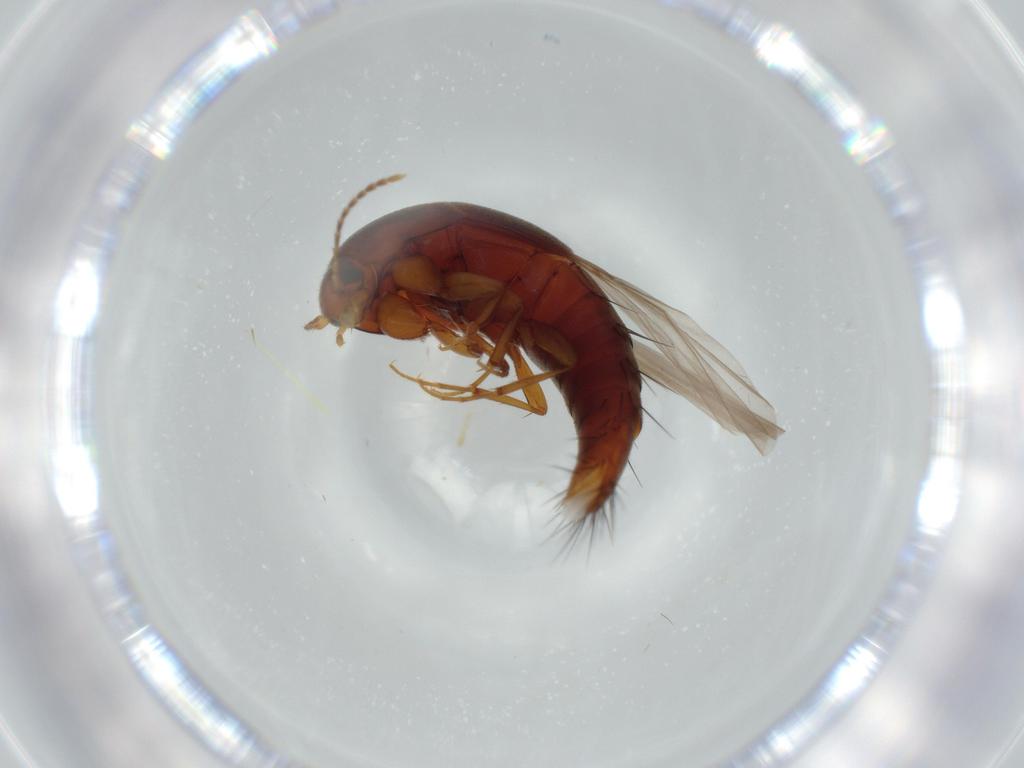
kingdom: Animalia
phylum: Arthropoda
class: Insecta
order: Coleoptera
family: Staphylinidae
